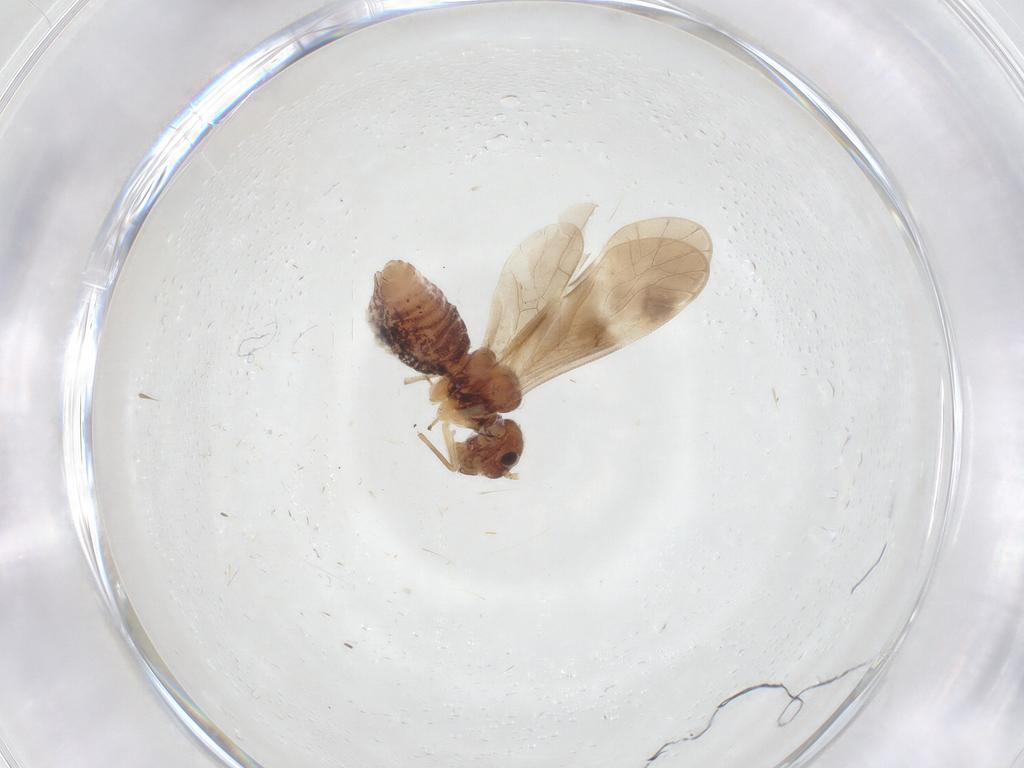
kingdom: Animalia
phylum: Arthropoda
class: Insecta
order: Psocodea
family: Caeciliusidae
